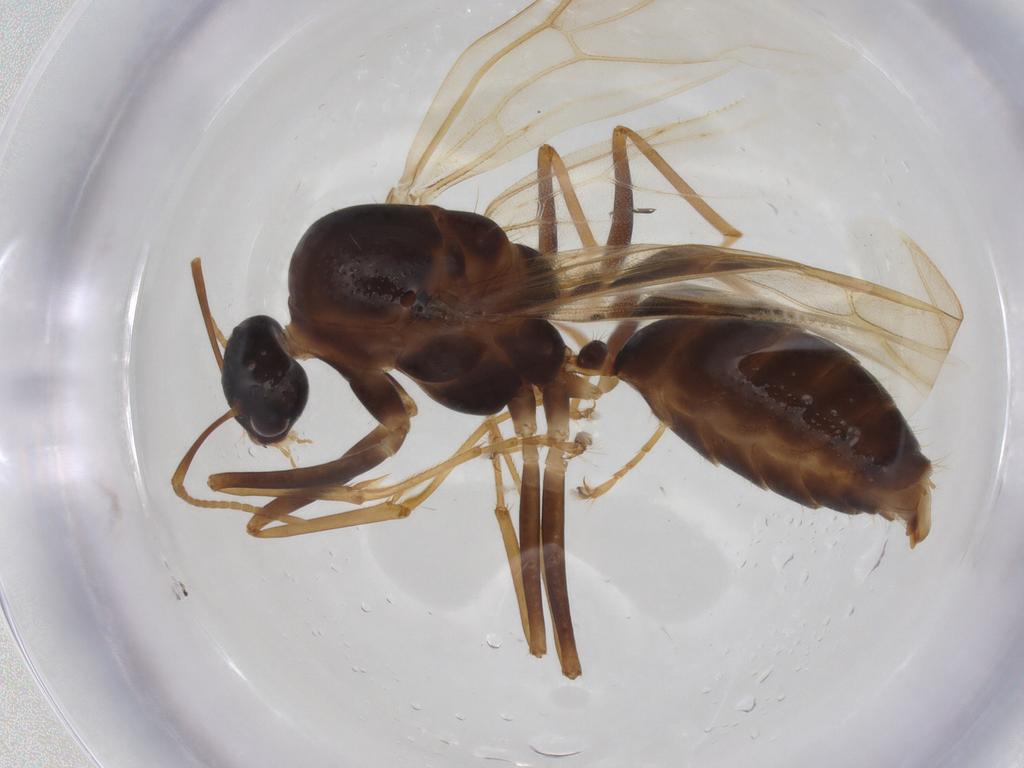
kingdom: Animalia
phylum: Arthropoda
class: Insecta
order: Hymenoptera
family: Formicidae
